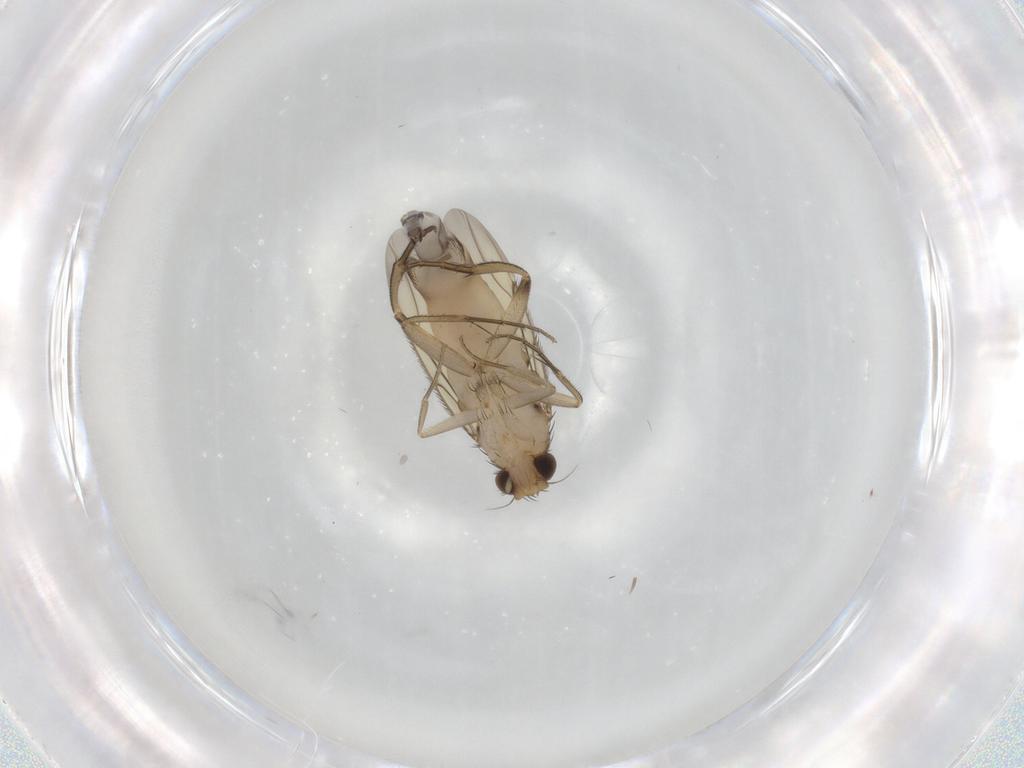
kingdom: Animalia
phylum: Arthropoda
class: Insecta
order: Diptera
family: Phoridae
